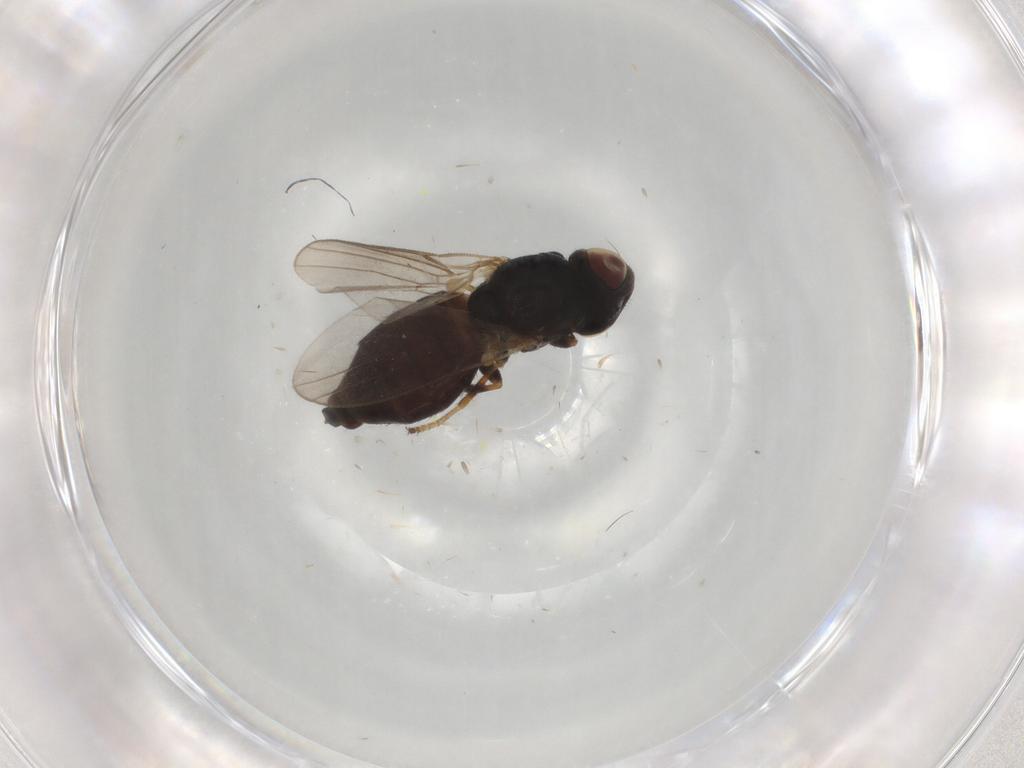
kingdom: Animalia
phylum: Arthropoda
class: Insecta
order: Diptera
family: Chloropidae
